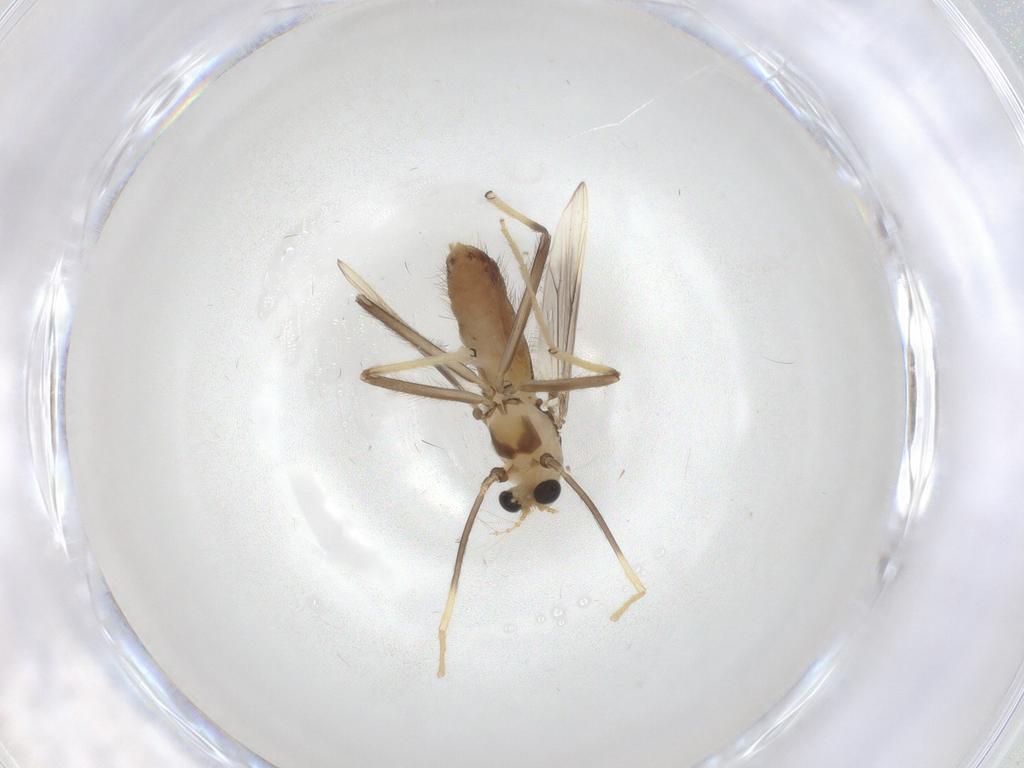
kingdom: Animalia
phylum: Arthropoda
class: Insecta
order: Diptera
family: Chironomidae
